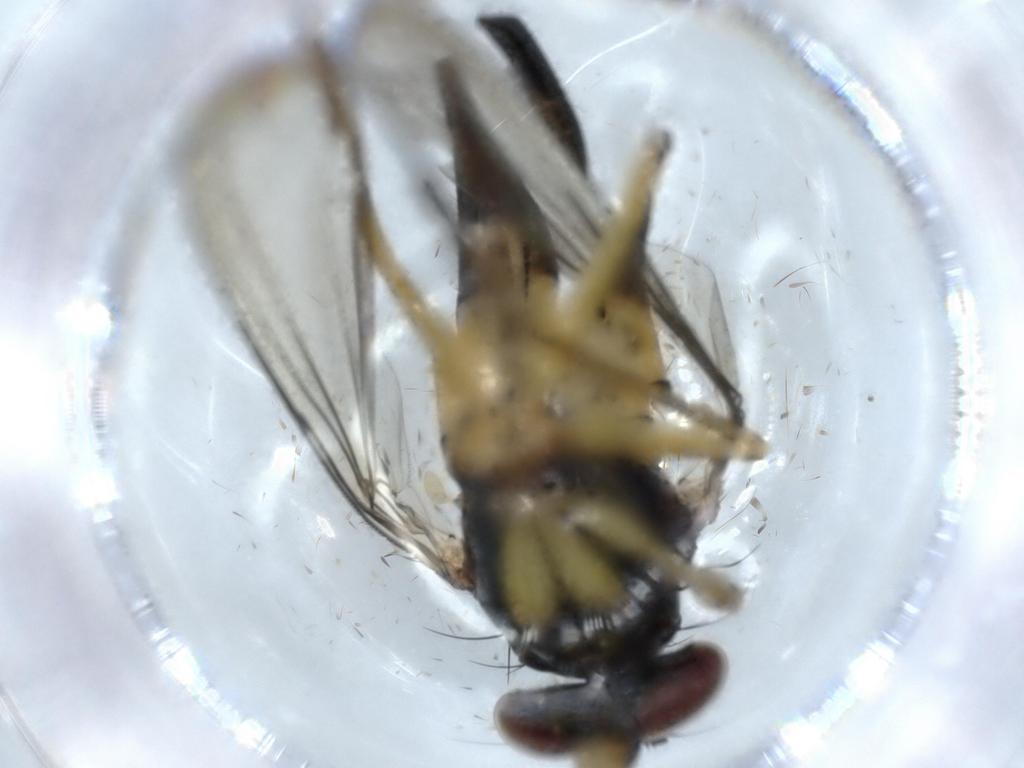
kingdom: Animalia
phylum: Arthropoda
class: Insecta
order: Diptera
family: Dolichopodidae
